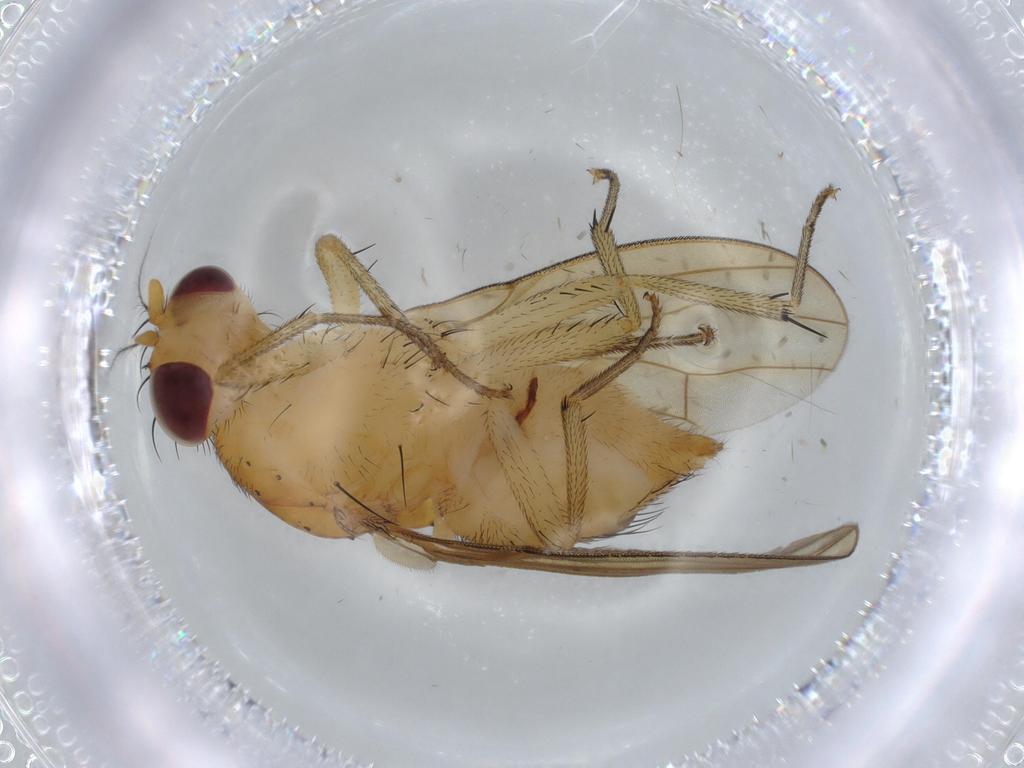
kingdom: Animalia
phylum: Arthropoda
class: Insecta
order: Diptera
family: Phoridae
